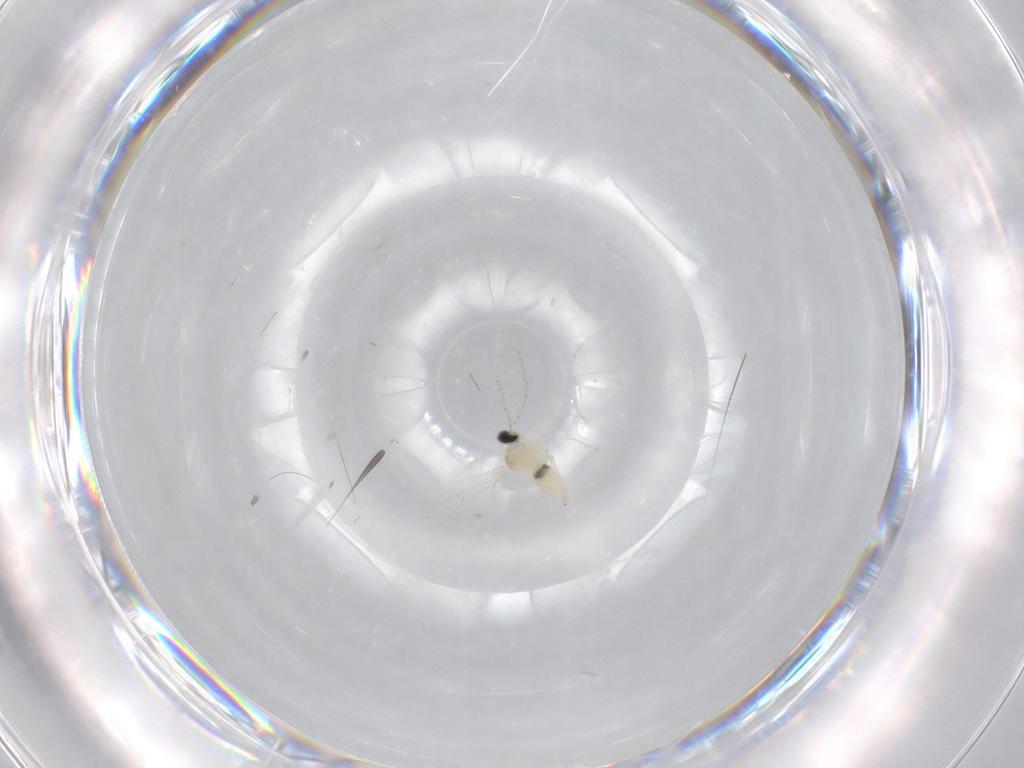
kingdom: Animalia
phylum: Arthropoda
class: Insecta
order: Diptera
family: Cecidomyiidae
